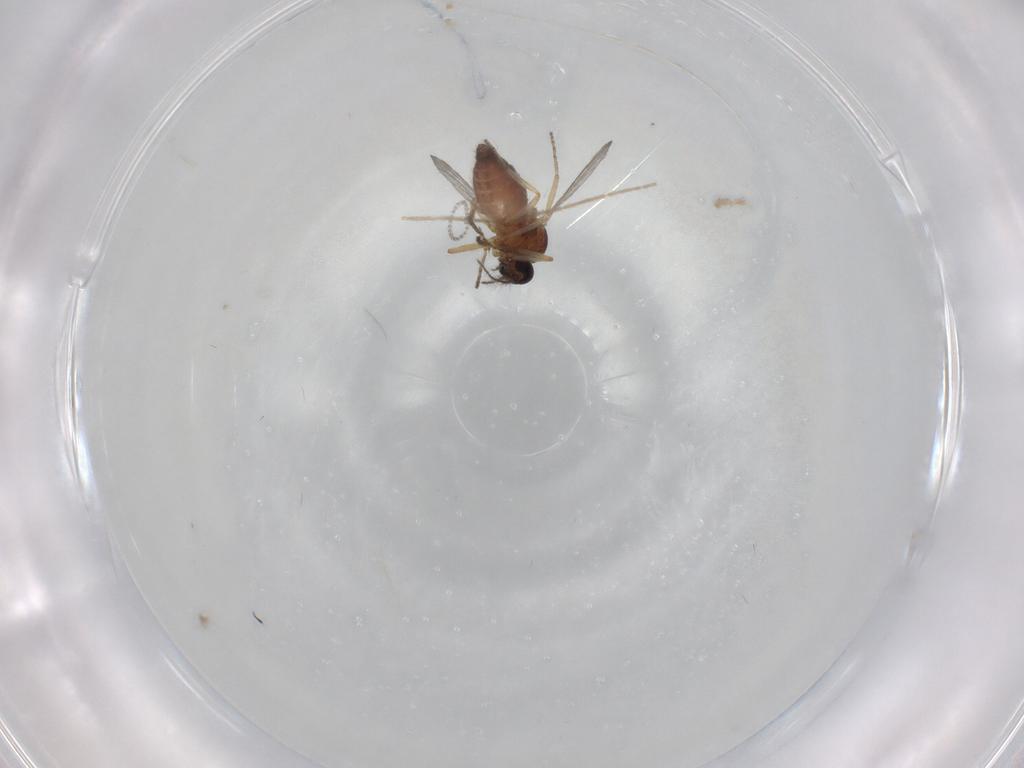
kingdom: Animalia
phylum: Arthropoda
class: Insecta
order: Diptera
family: Ceratopogonidae
